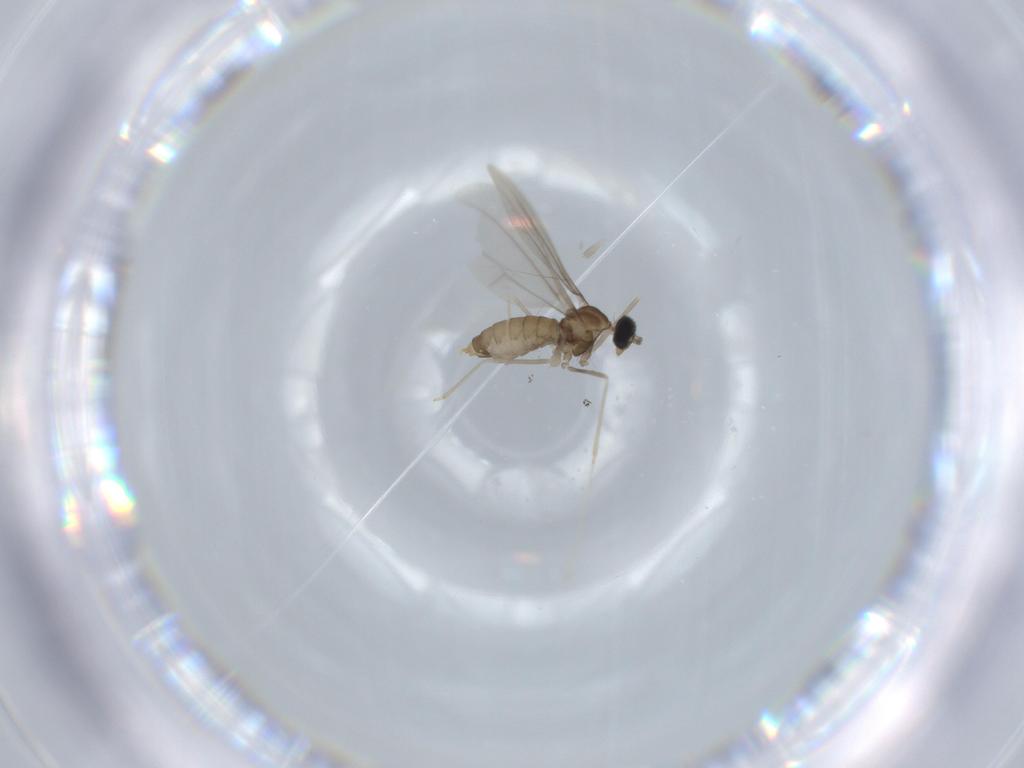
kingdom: Animalia
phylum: Arthropoda
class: Insecta
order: Diptera
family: Cecidomyiidae
